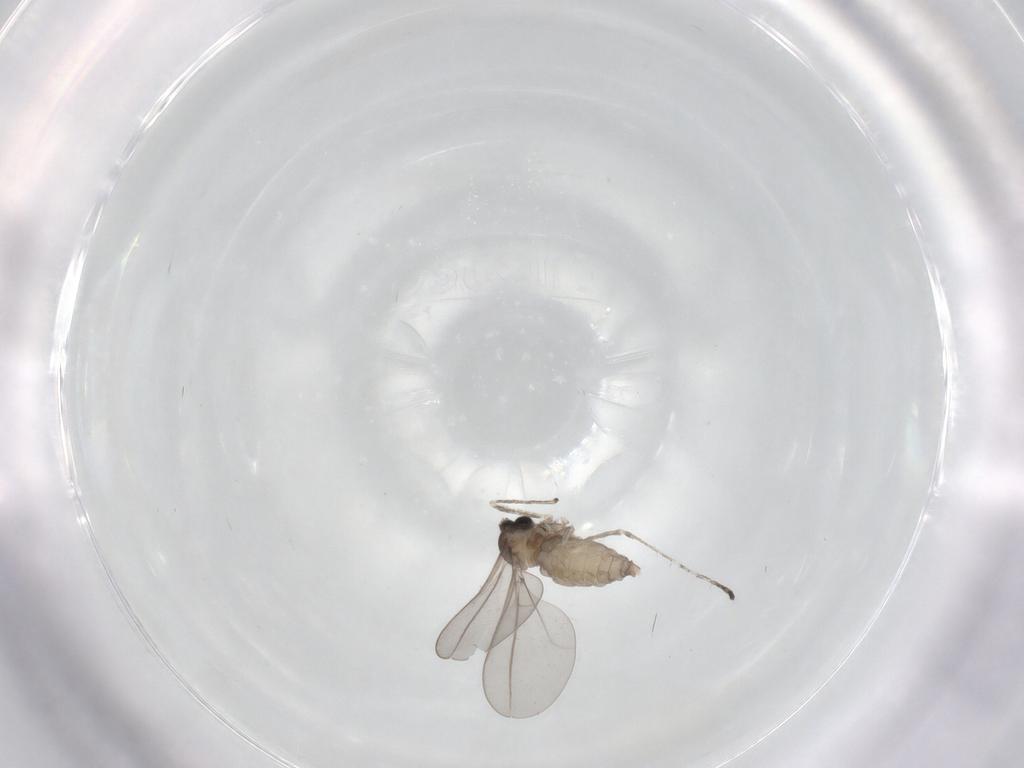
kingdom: Animalia
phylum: Arthropoda
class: Insecta
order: Diptera
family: Cecidomyiidae
